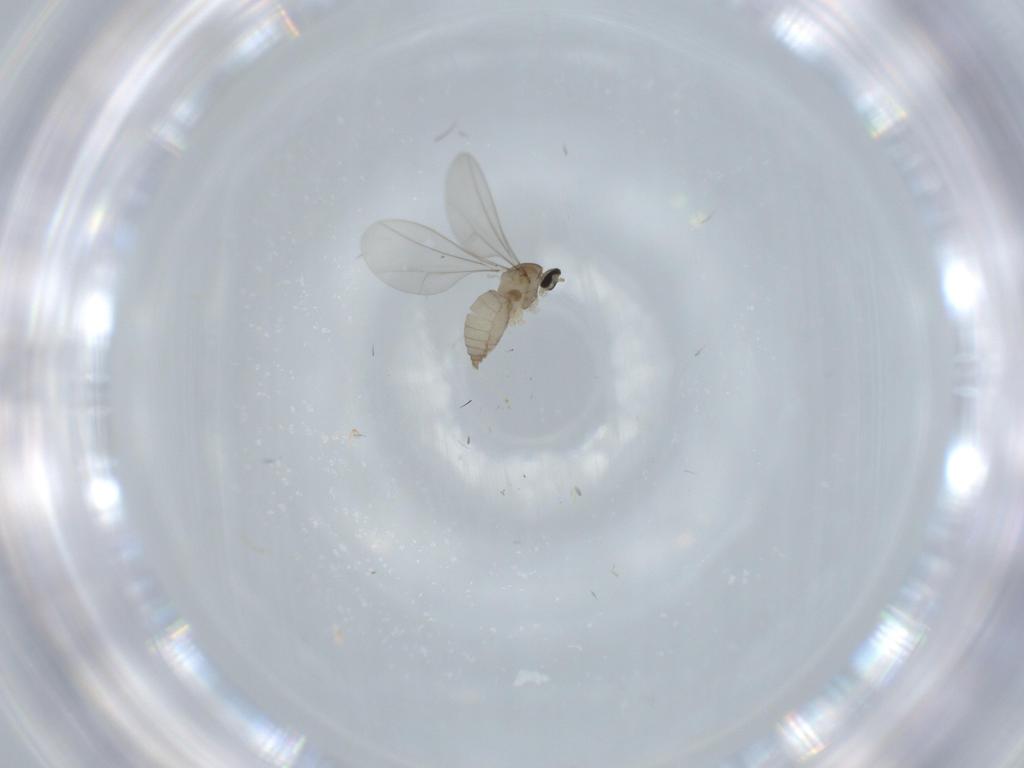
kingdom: Animalia
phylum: Arthropoda
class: Insecta
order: Diptera
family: Cecidomyiidae
